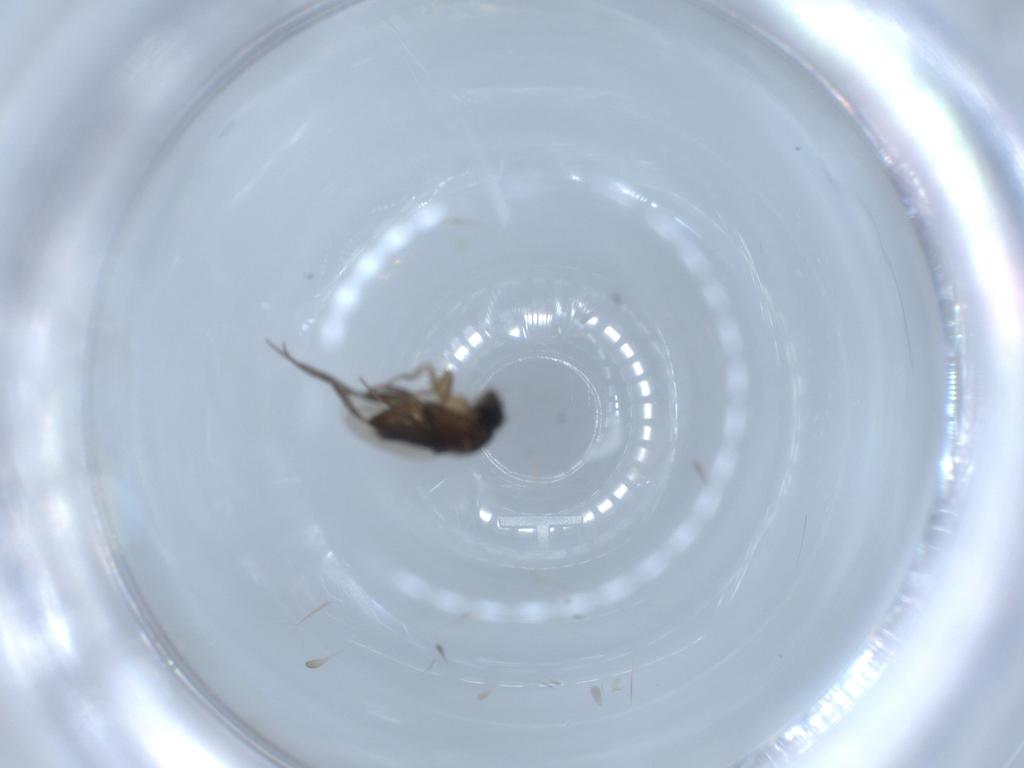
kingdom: Animalia
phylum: Arthropoda
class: Insecta
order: Diptera
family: Phoridae
